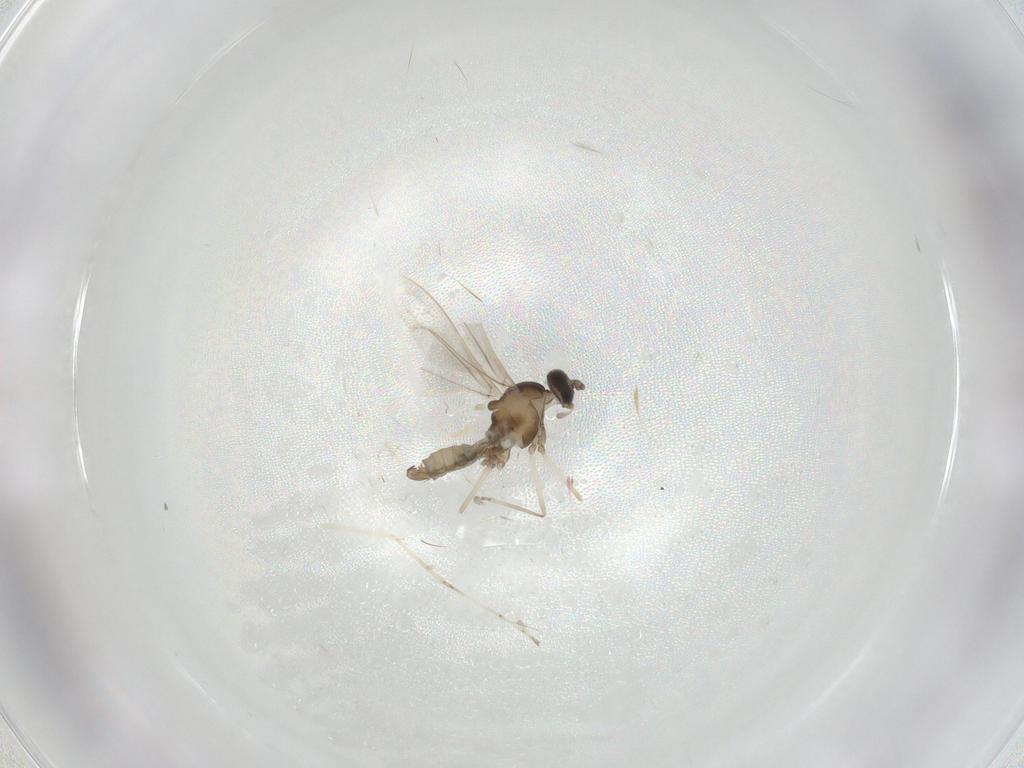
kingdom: Animalia
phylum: Arthropoda
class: Insecta
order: Diptera
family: Cecidomyiidae
